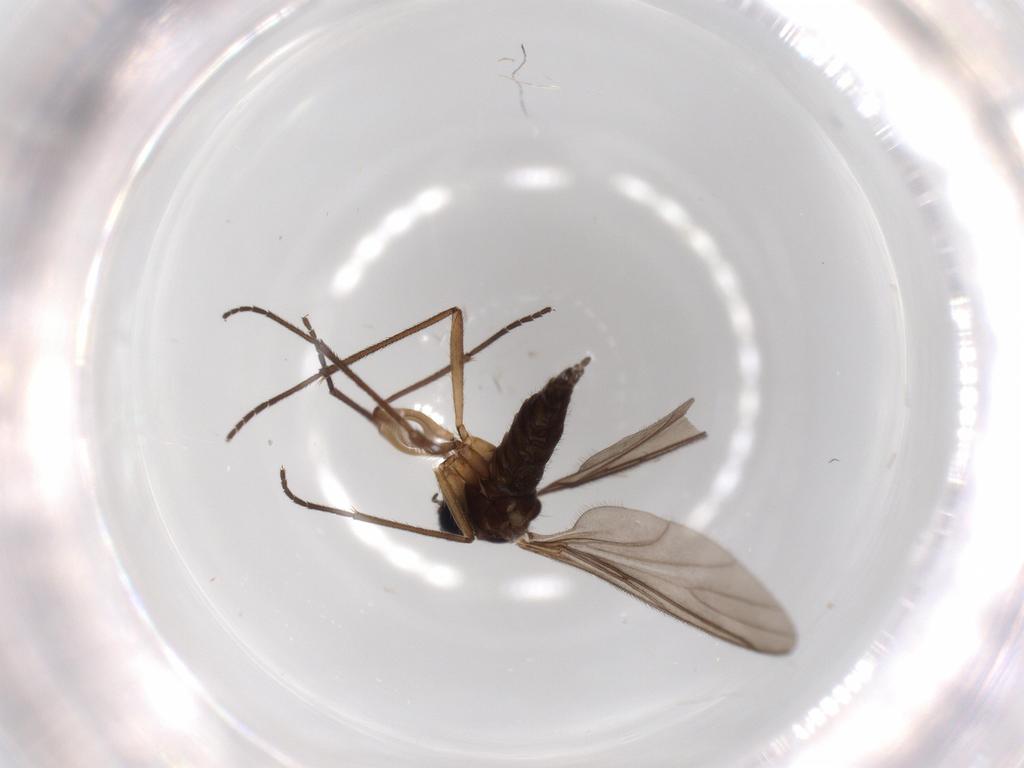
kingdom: Animalia
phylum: Arthropoda
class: Insecta
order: Diptera
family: Sciaridae
